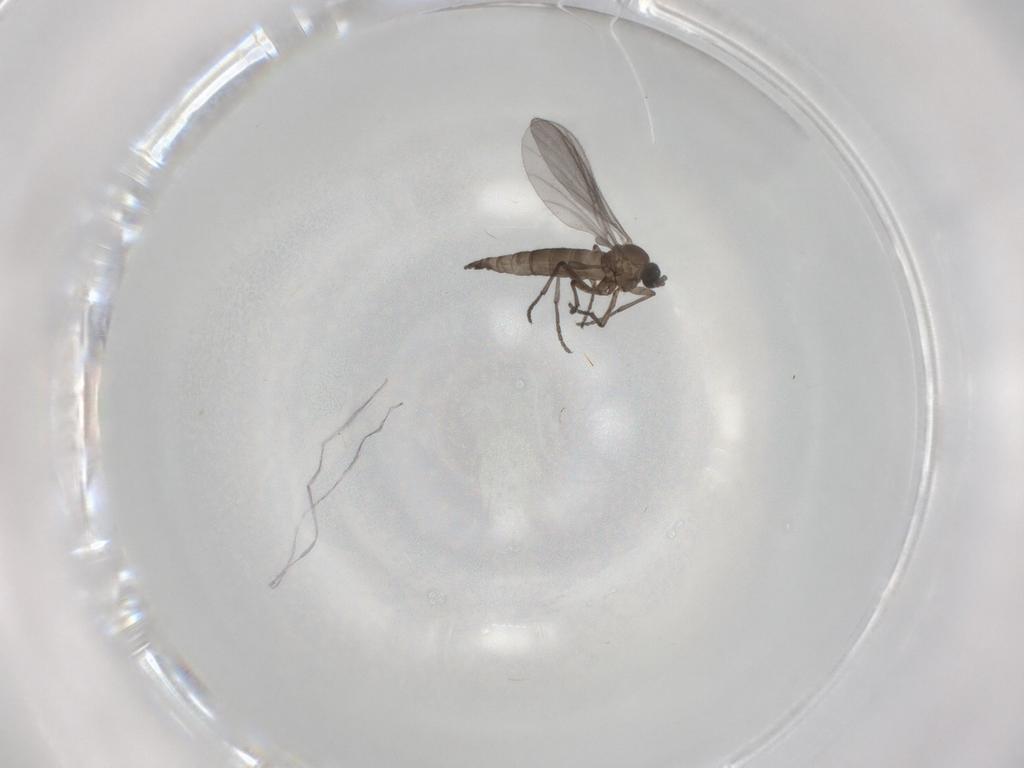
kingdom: Animalia
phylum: Arthropoda
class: Insecta
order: Diptera
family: Sciaridae
